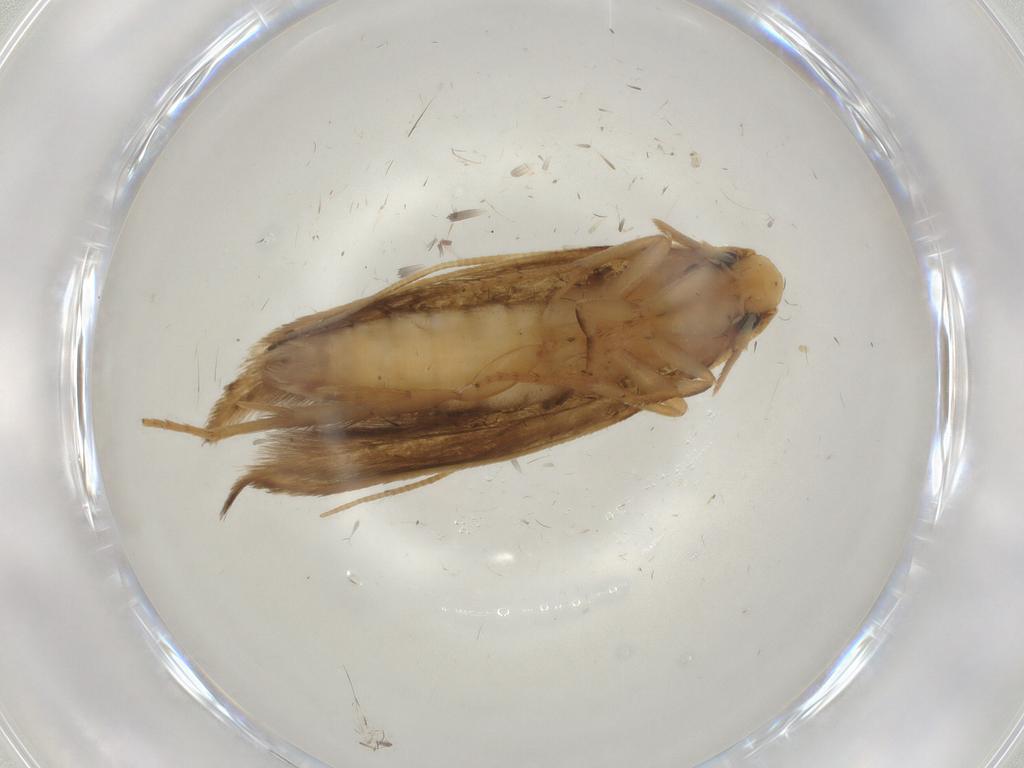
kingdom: Animalia
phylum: Arthropoda
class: Insecta
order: Lepidoptera
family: Tineidae
